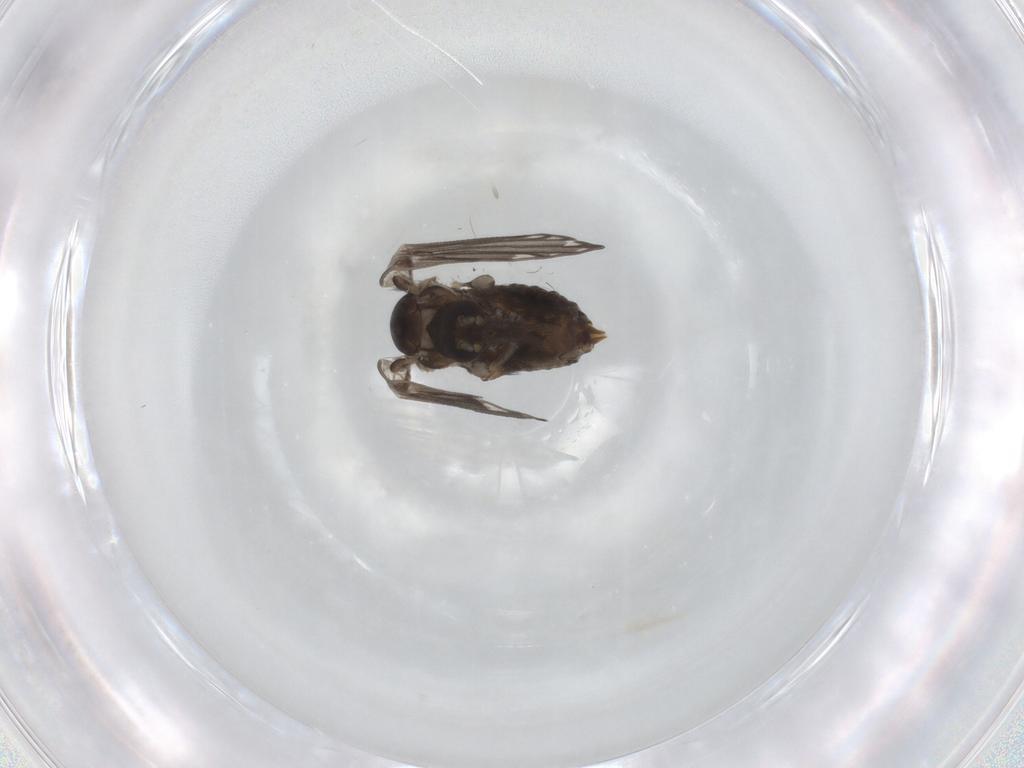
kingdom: Animalia
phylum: Arthropoda
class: Insecta
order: Diptera
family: Psychodidae
